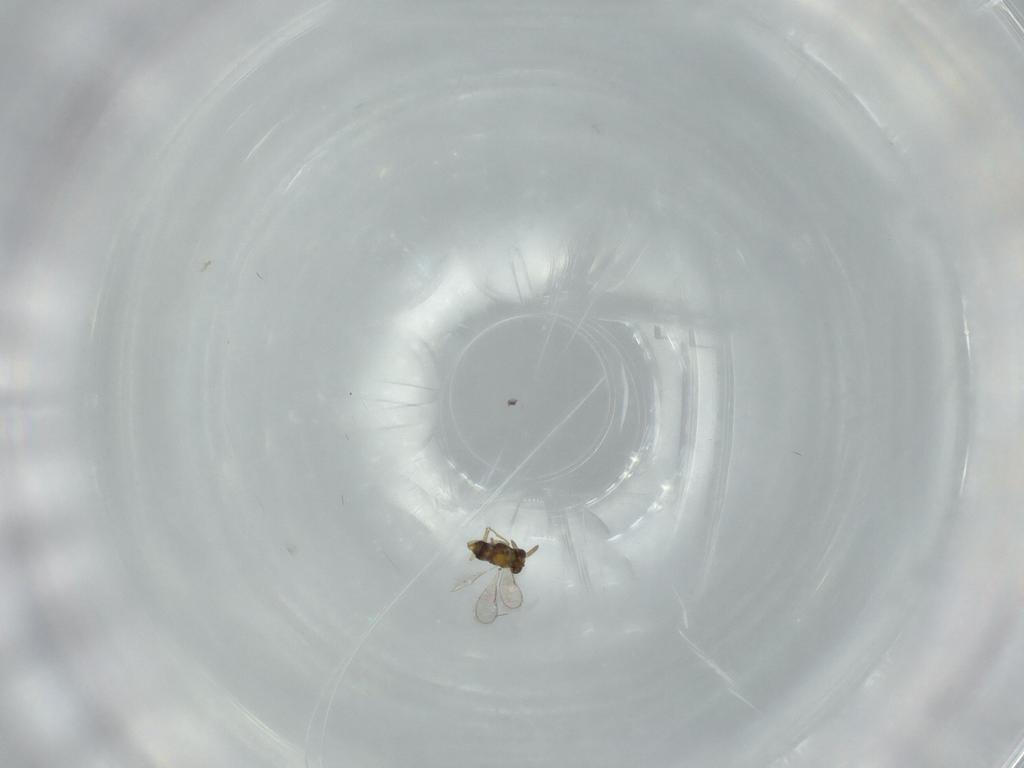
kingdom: Animalia
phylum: Arthropoda
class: Insecta
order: Hymenoptera
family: Aphelinidae
